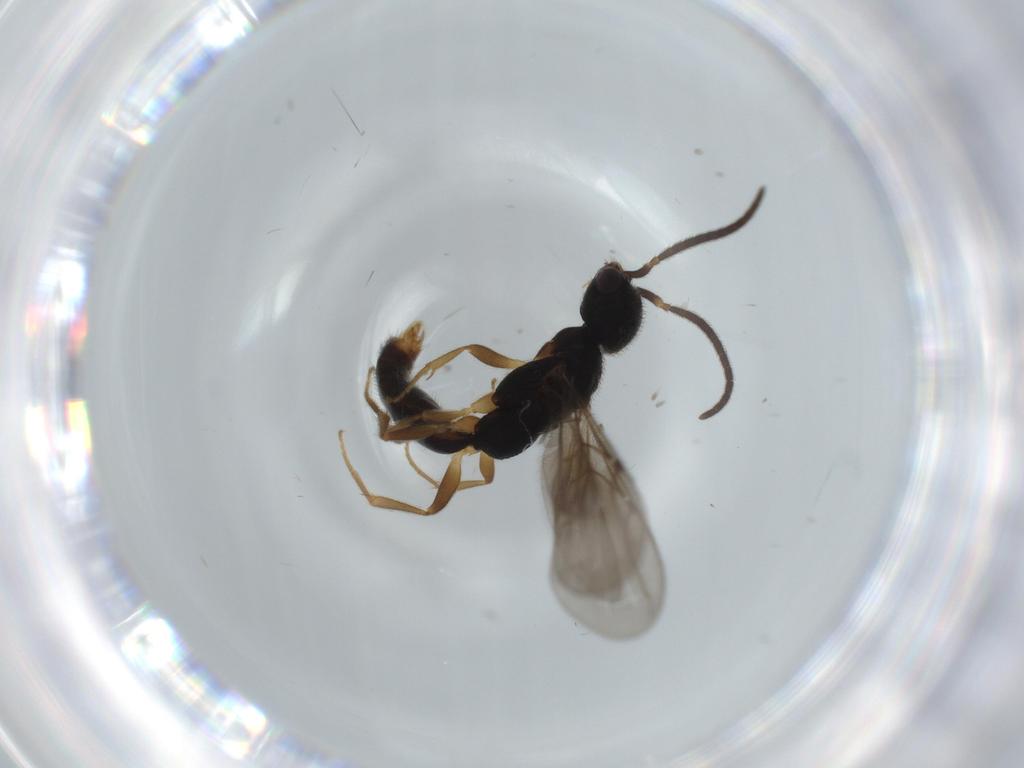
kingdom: Animalia
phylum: Arthropoda
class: Insecta
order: Hymenoptera
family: Bethylidae
